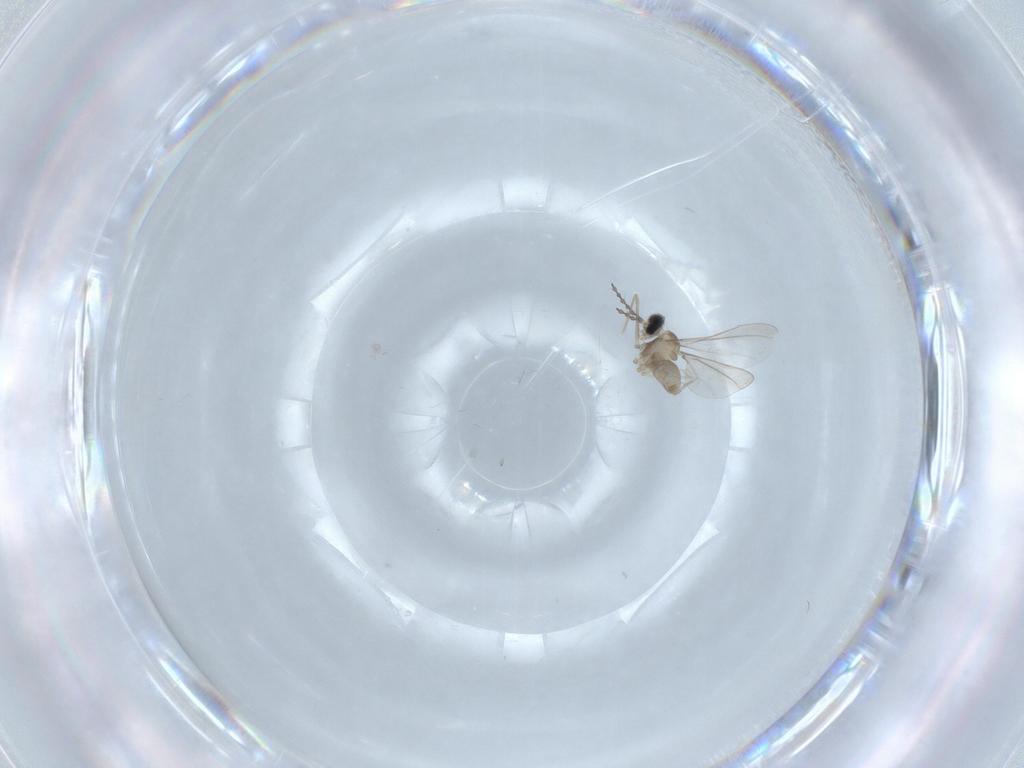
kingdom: Animalia
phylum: Arthropoda
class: Insecta
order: Diptera
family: Cecidomyiidae
